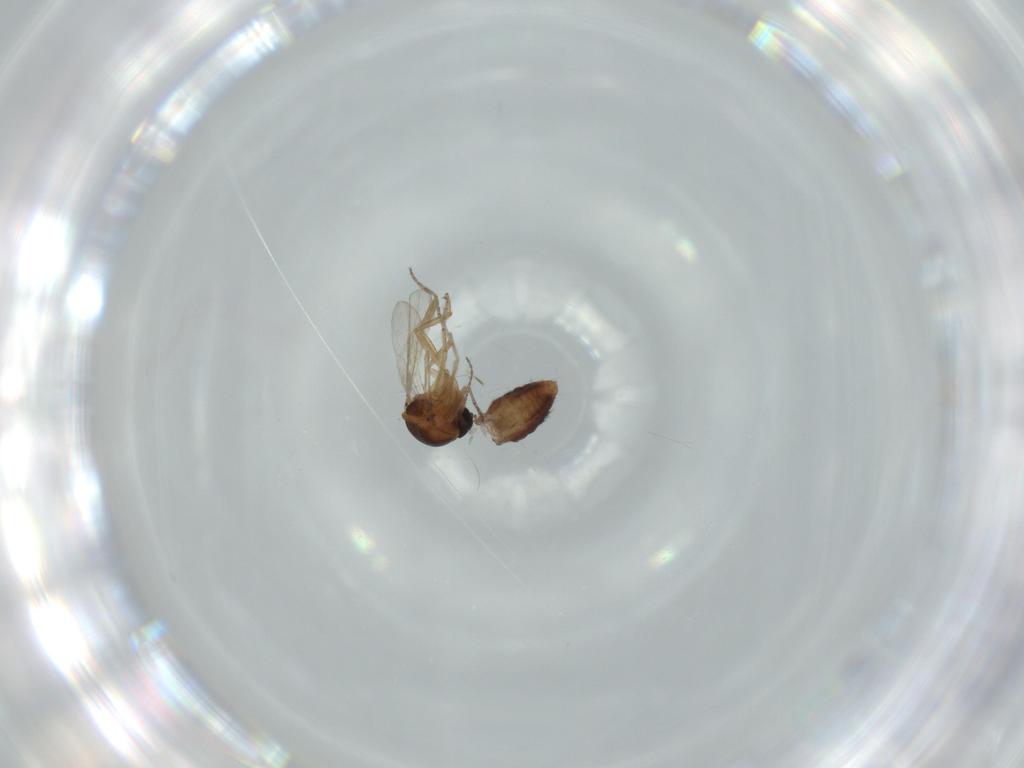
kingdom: Animalia
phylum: Arthropoda
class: Insecta
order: Diptera
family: Ceratopogonidae
